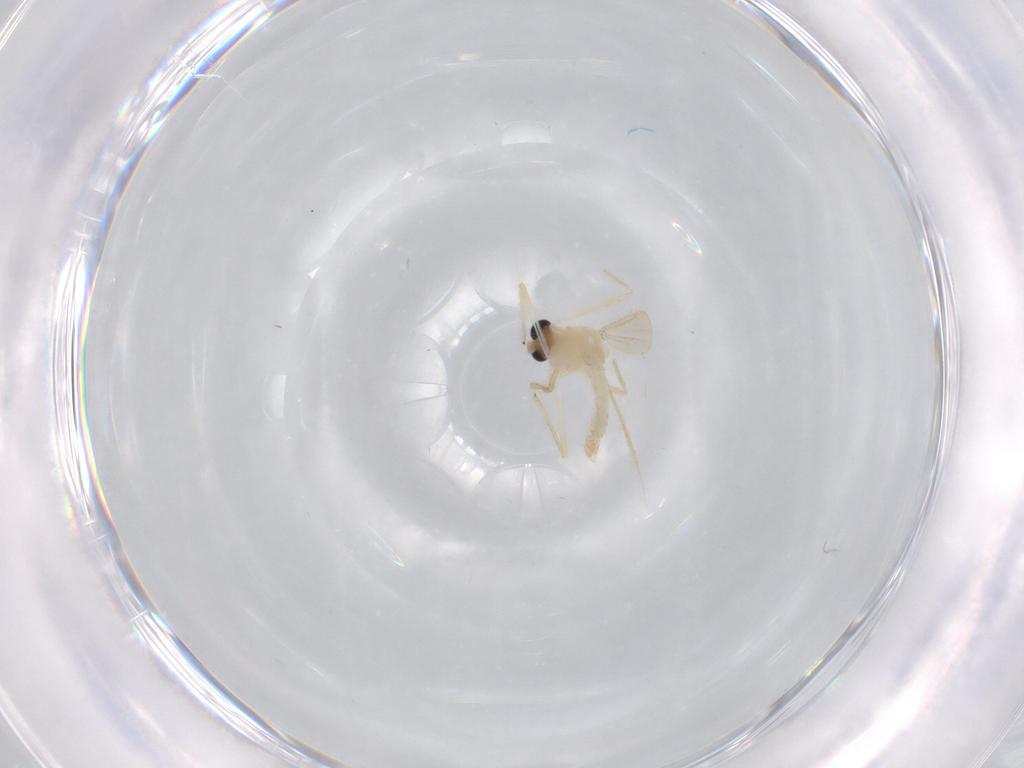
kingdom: Animalia
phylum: Arthropoda
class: Insecta
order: Diptera
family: Chironomidae
